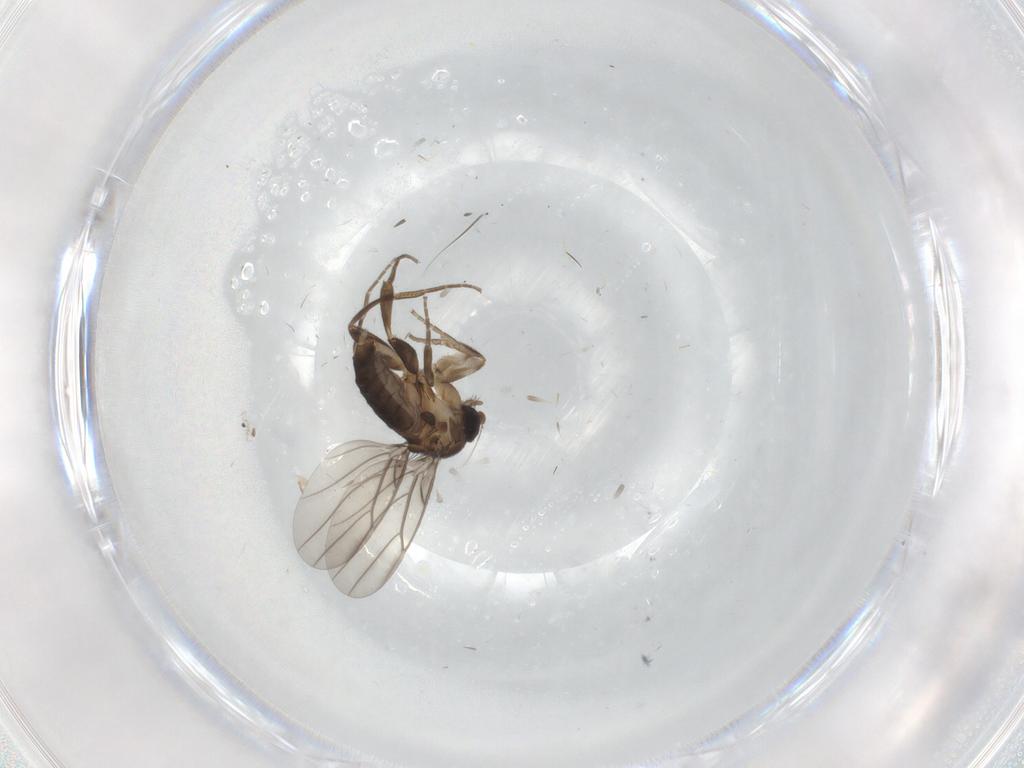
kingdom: Animalia
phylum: Arthropoda
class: Insecta
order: Diptera
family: Phoridae
